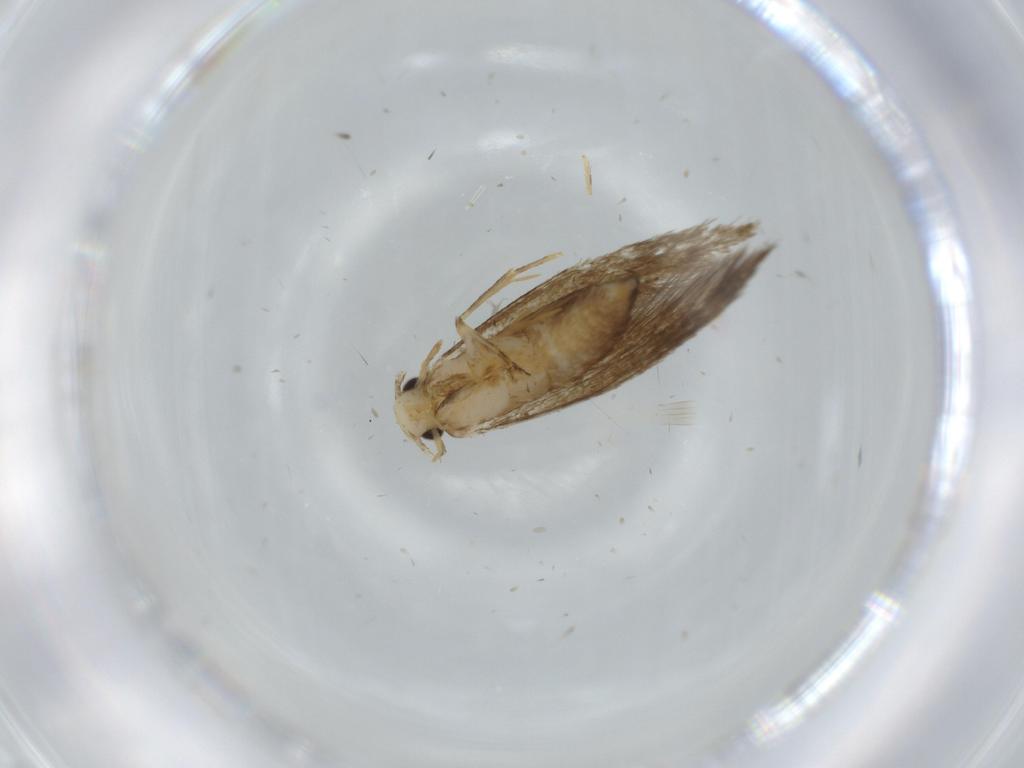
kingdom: Animalia
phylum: Arthropoda
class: Insecta
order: Lepidoptera
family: Tineidae
